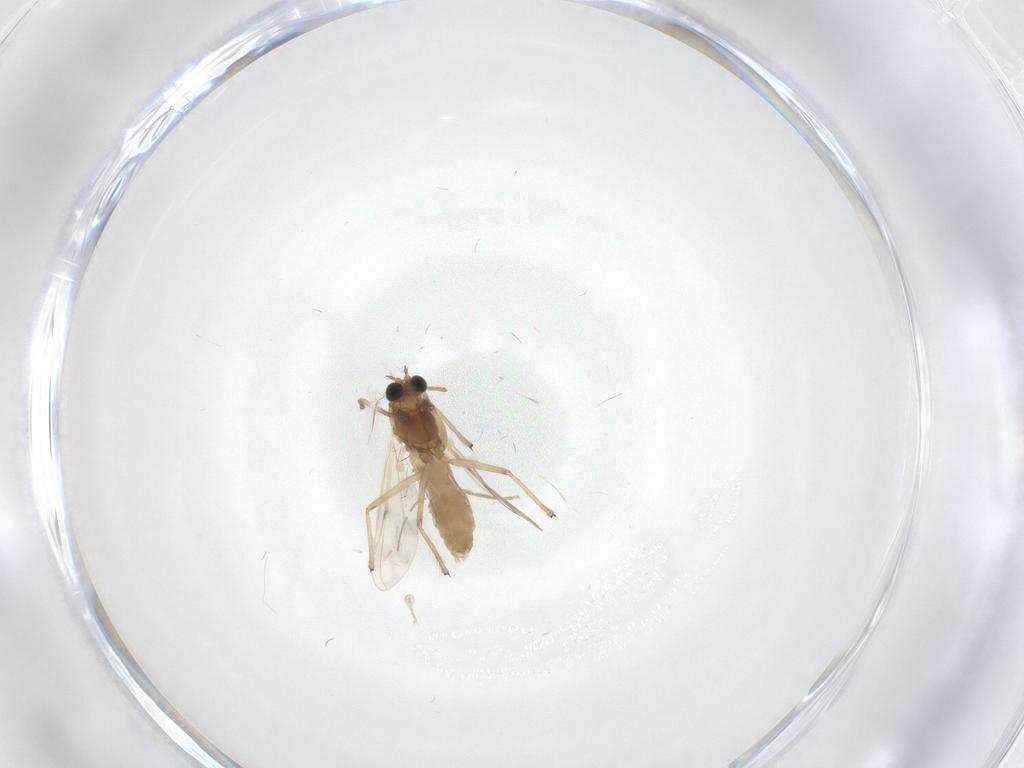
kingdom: Animalia
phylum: Arthropoda
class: Insecta
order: Diptera
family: Chironomidae
